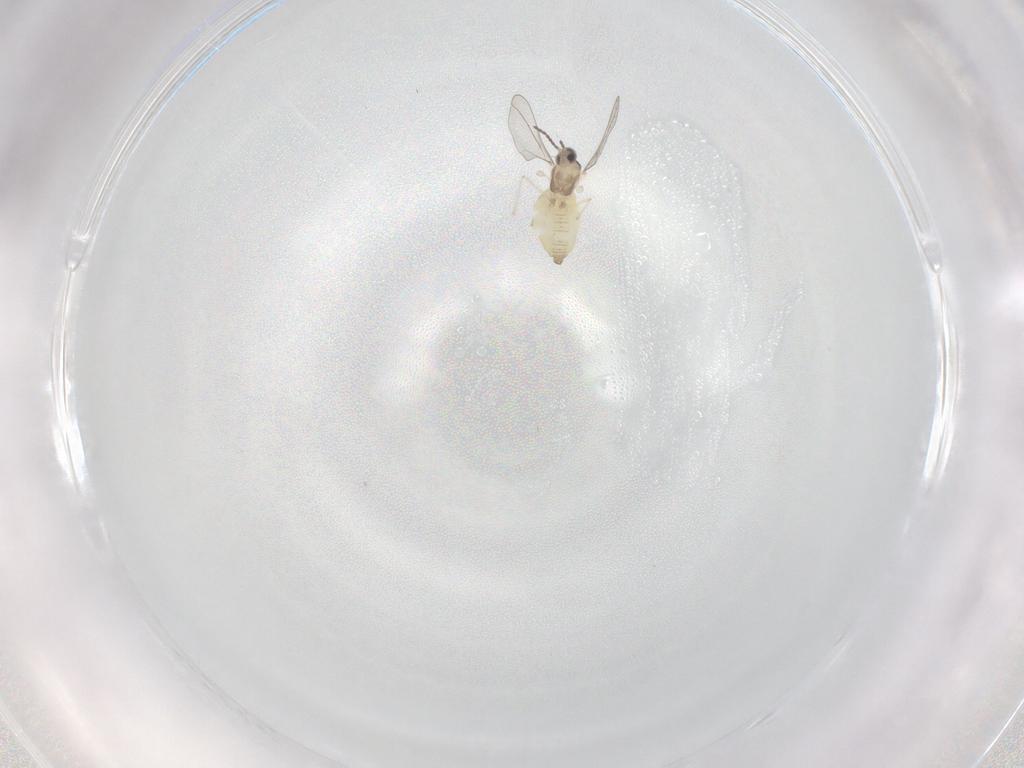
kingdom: Animalia
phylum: Arthropoda
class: Insecta
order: Diptera
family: Cecidomyiidae
